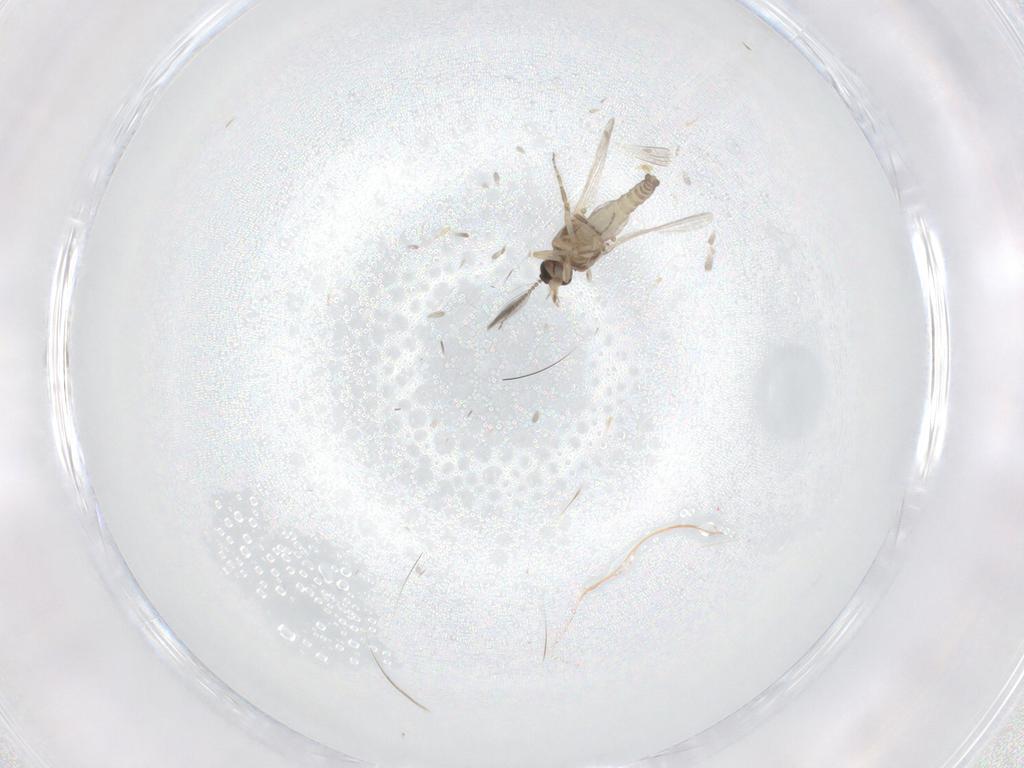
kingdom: Animalia
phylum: Arthropoda
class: Insecta
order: Diptera
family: Ceratopogonidae
